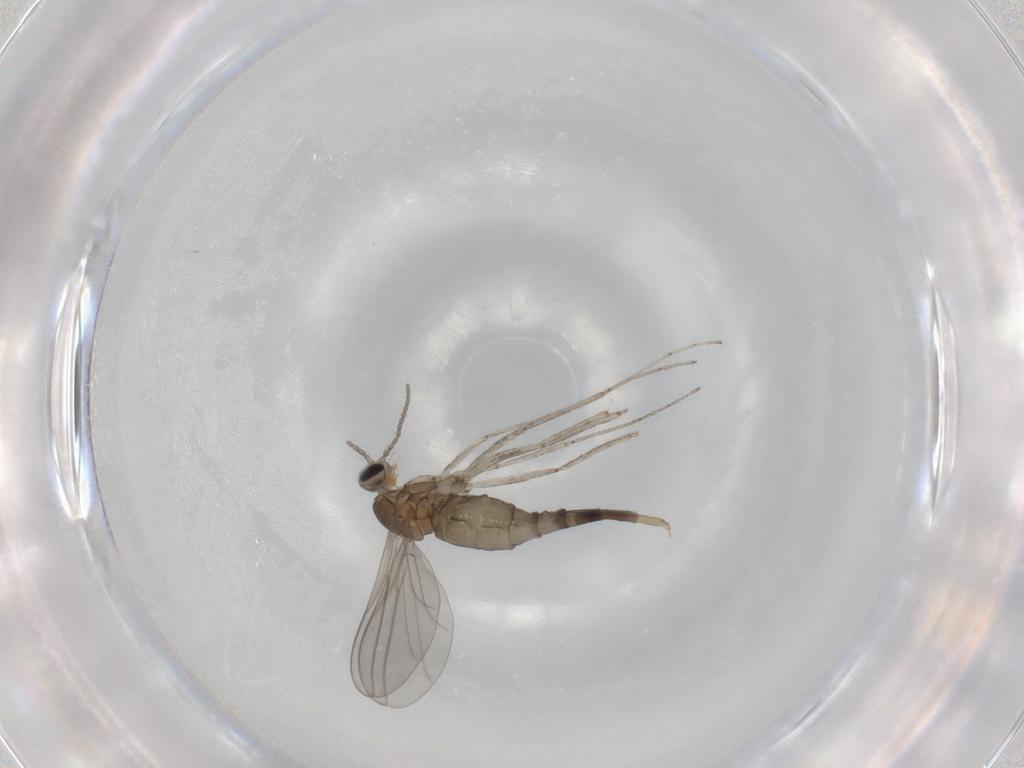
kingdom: Animalia
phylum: Arthropoda
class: Insecta
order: Diptera
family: Cecidomyiidae
